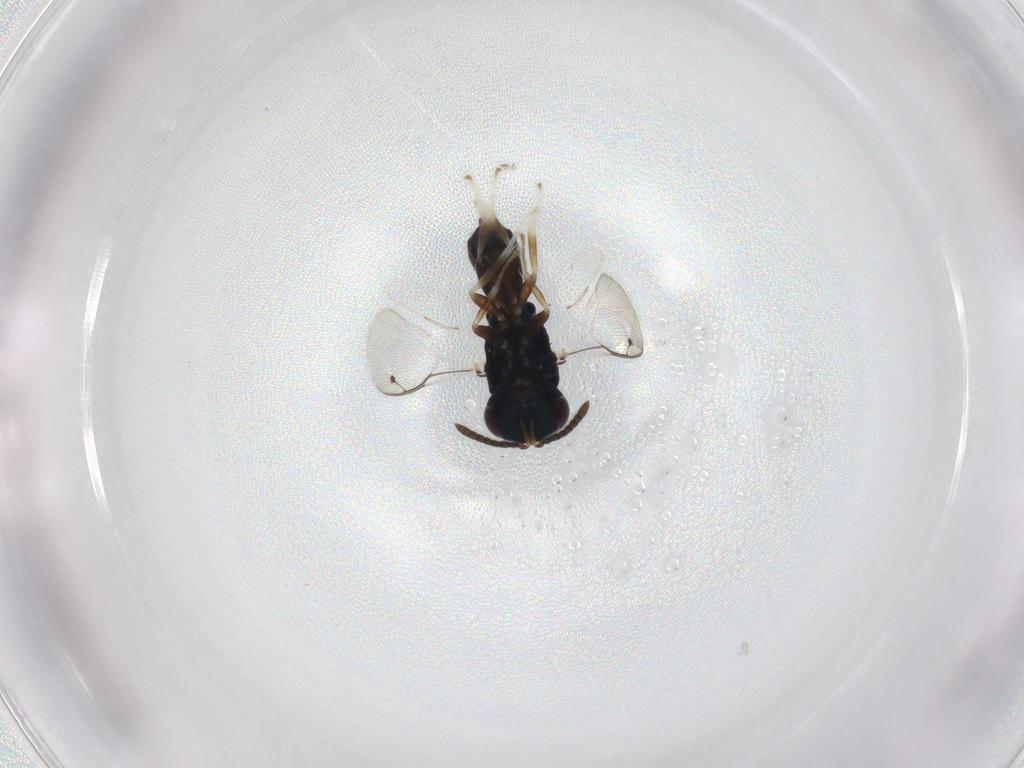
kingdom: Animalia
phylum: Arthropoda
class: Insecta
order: Hymenoptera
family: Pteromalidae
